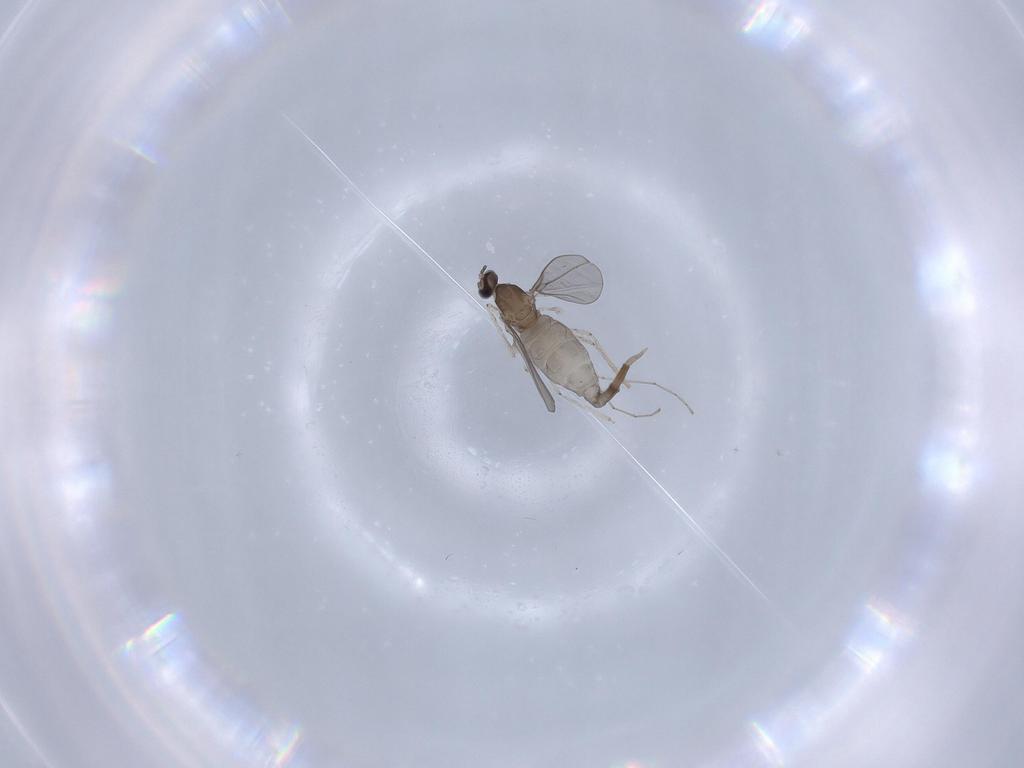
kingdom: Animalia
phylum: Arthropoda
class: Insecta
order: Diptera
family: Cecidomyiidae
